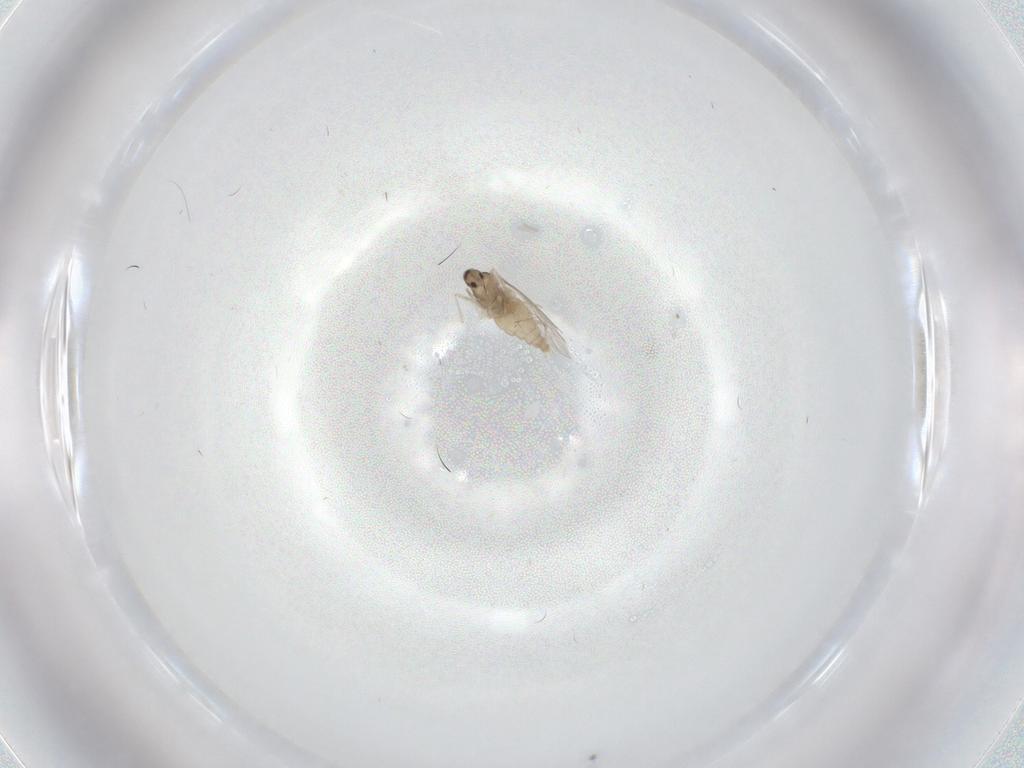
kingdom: Animalia
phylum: Arthropoda
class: Insecta
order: Diptera
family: Cecidomyiidae
